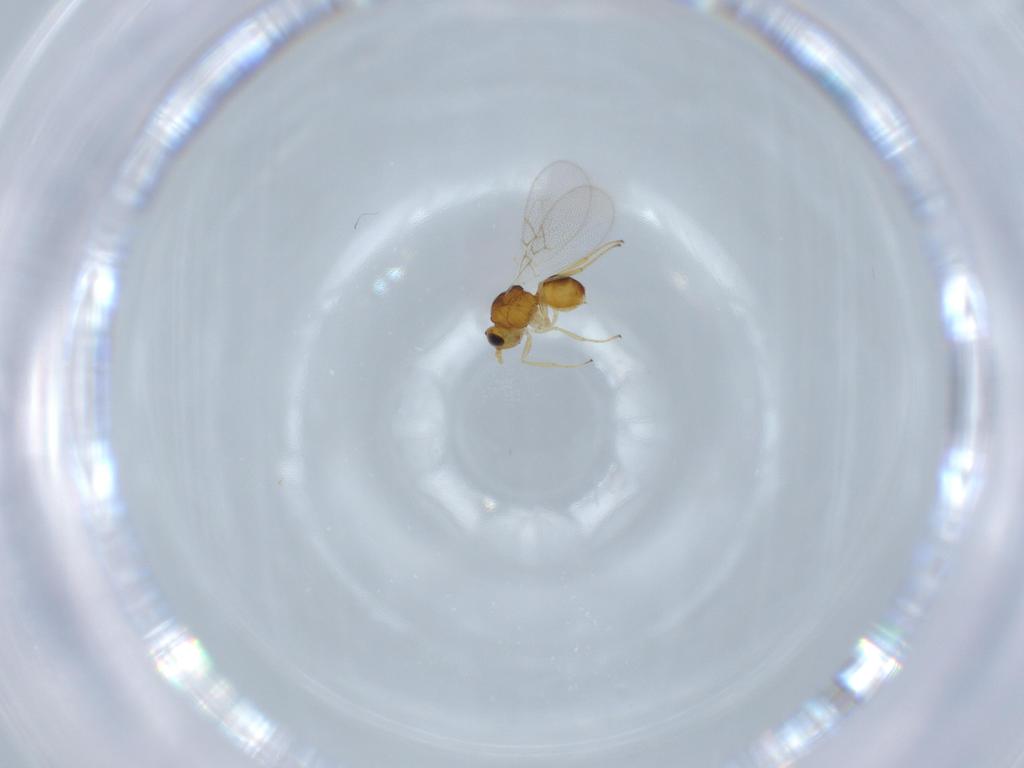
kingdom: Animalia
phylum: Arthropoda
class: Insecta
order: Hymenoptera
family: Figitidae
